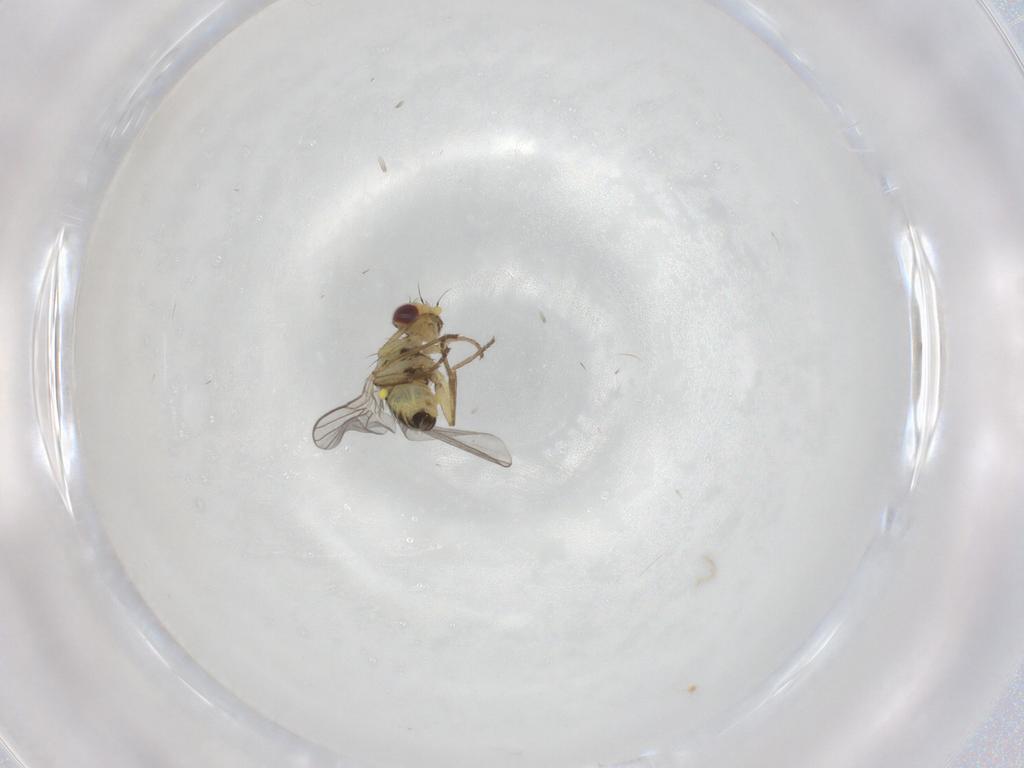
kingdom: Animalia
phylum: Arthropoda
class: Insecta
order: Diptera
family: Agromyzidae
